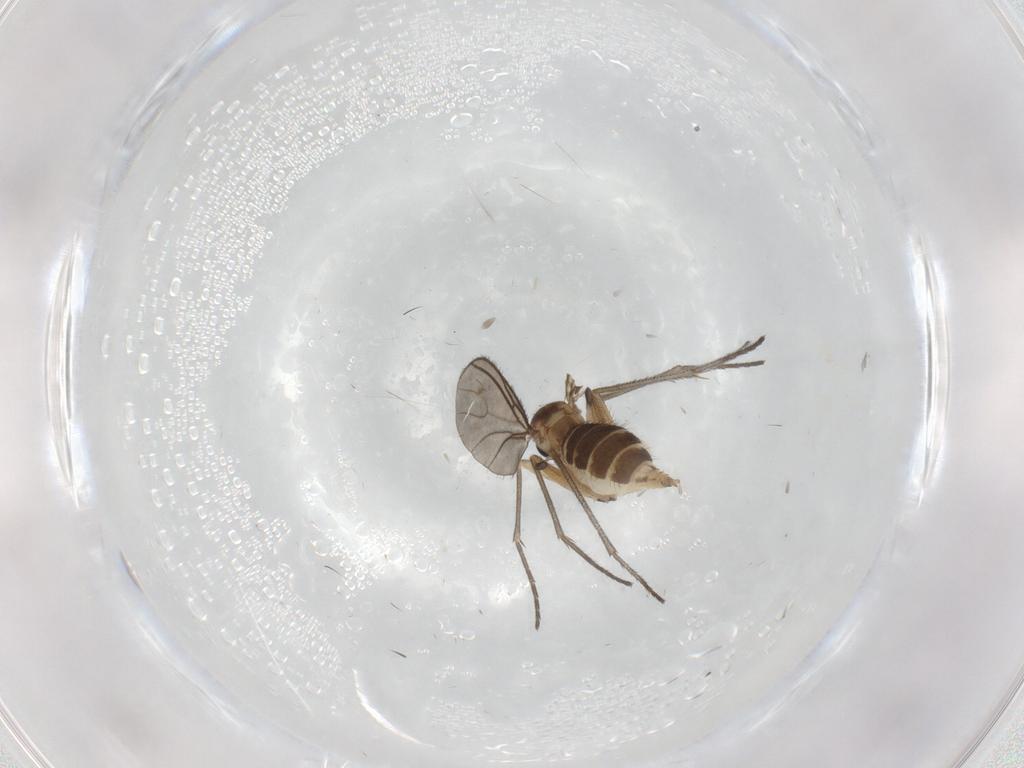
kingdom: Animalia
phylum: Arthropoda
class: Insecta
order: Diptera
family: Sciaridae
